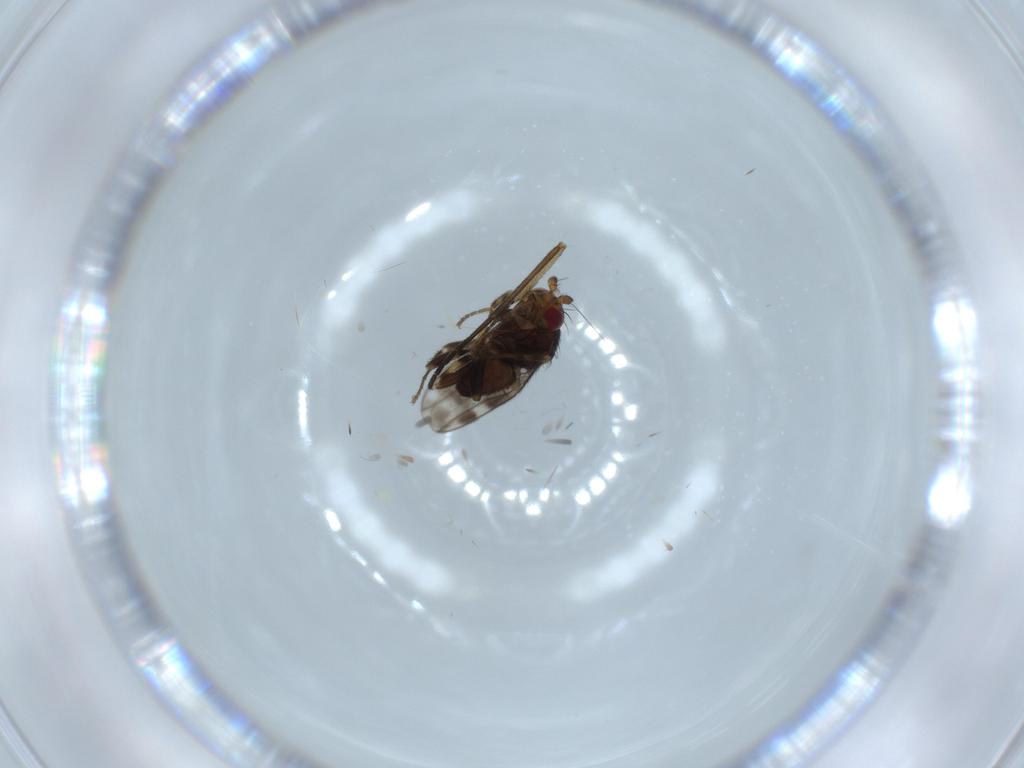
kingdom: Animalia
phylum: Arthropoda
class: Insecta
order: Diptera
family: Sphaeroceridae
